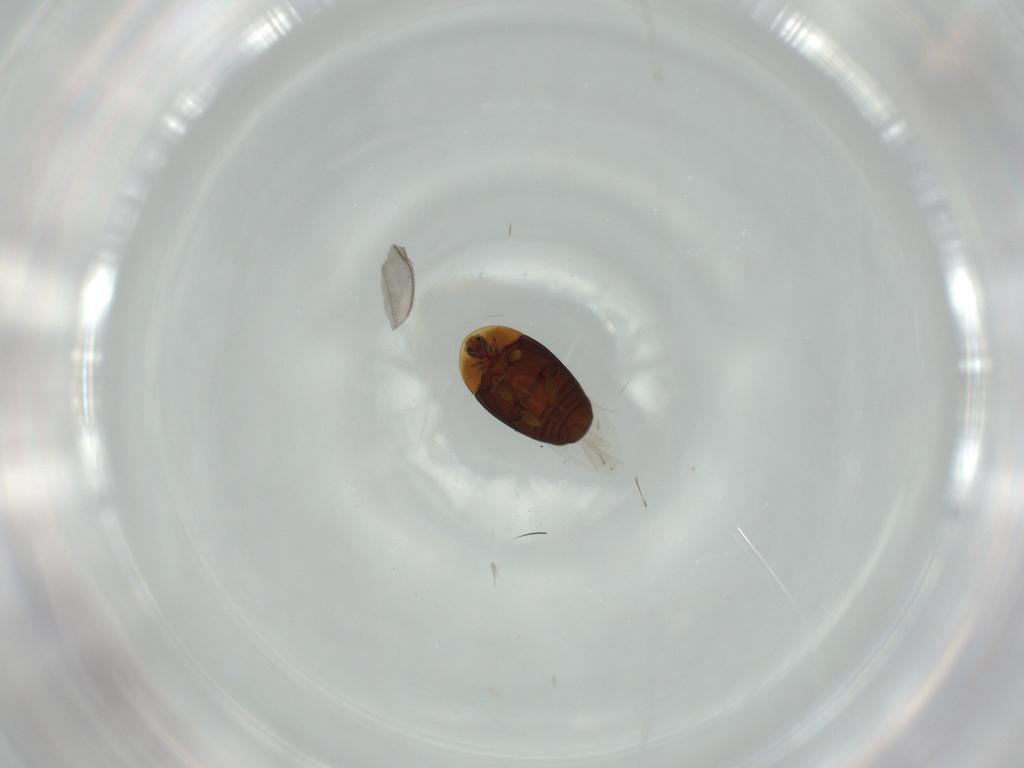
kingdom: Animalia
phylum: Arthropoda
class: Insecta
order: Coleoptera
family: Corylophidae
